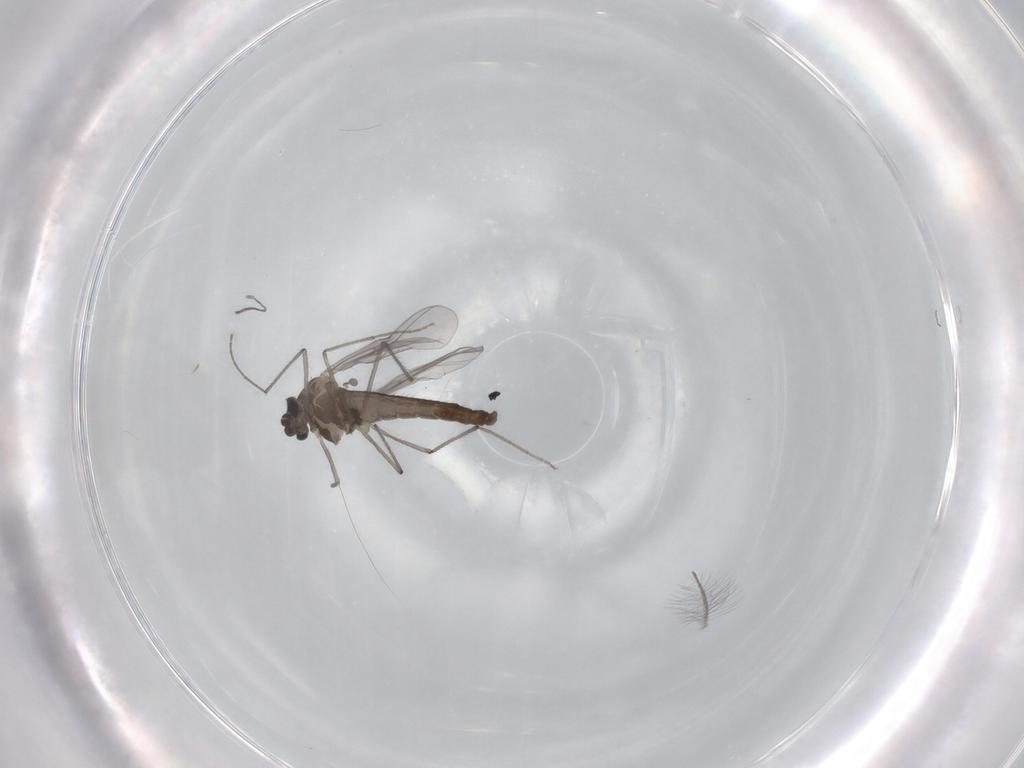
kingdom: Animalia
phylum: Arthropoda
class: Insecta
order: Diptera
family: Chironomidae
